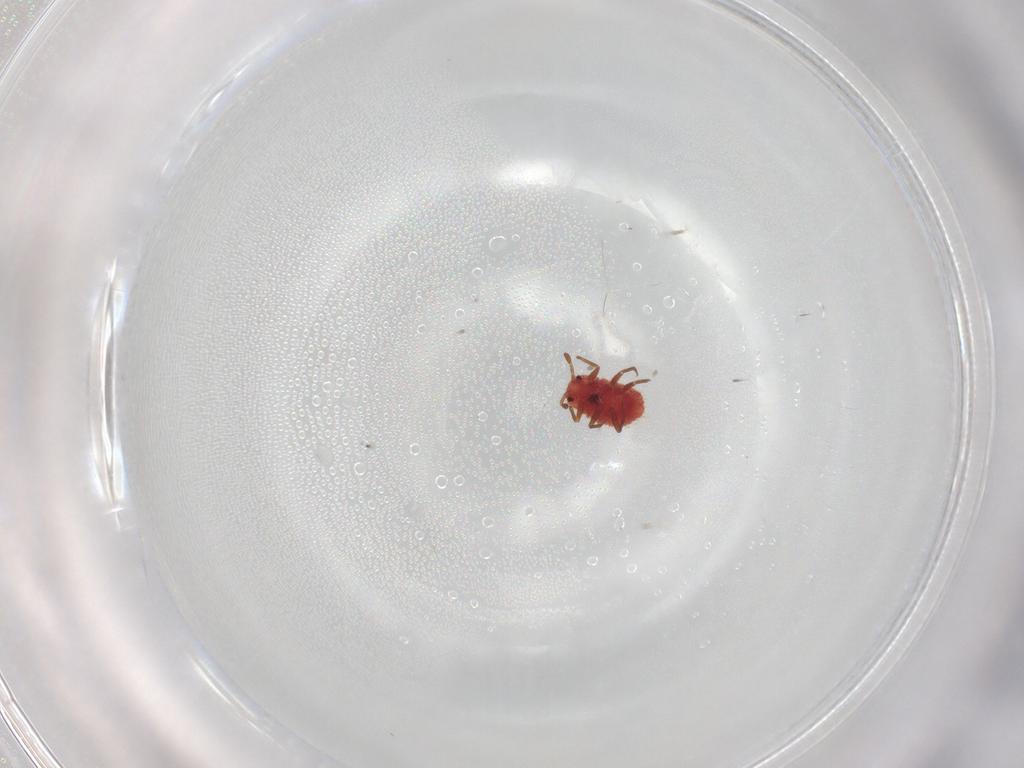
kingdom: Animalia
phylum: Arthropoda
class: Insecta
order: Hemiptera
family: Monophlebidae
